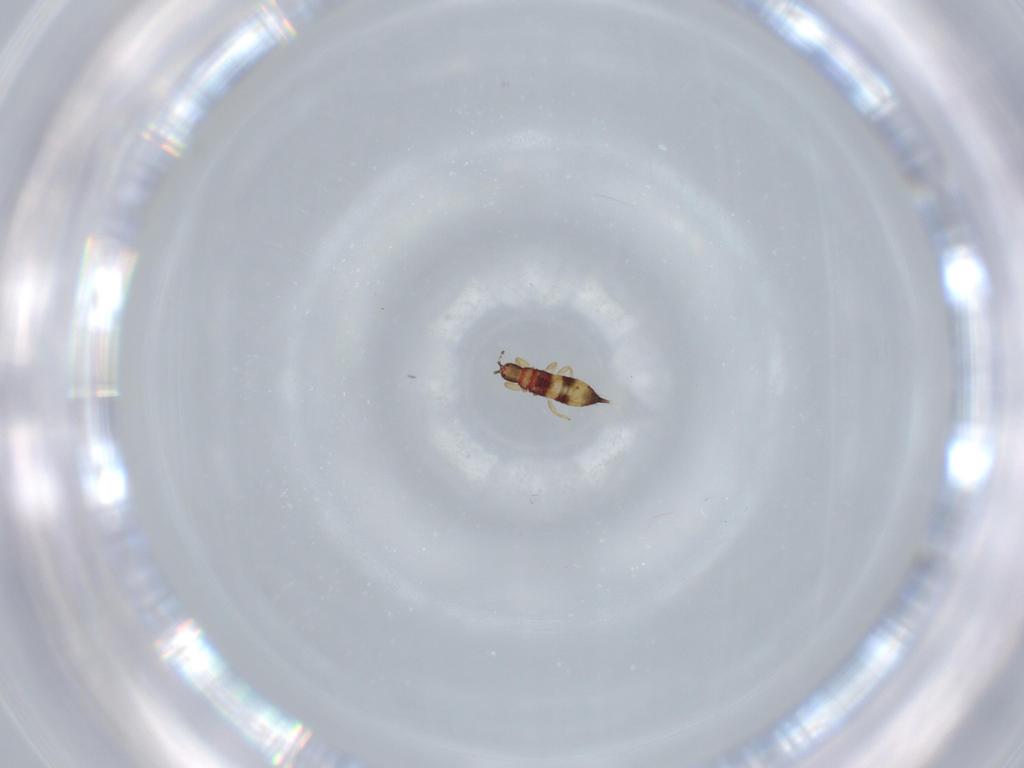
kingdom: Animalia
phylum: Arthropoda
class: Insecta
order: Thysanoptera
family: Phlaeothripidae
